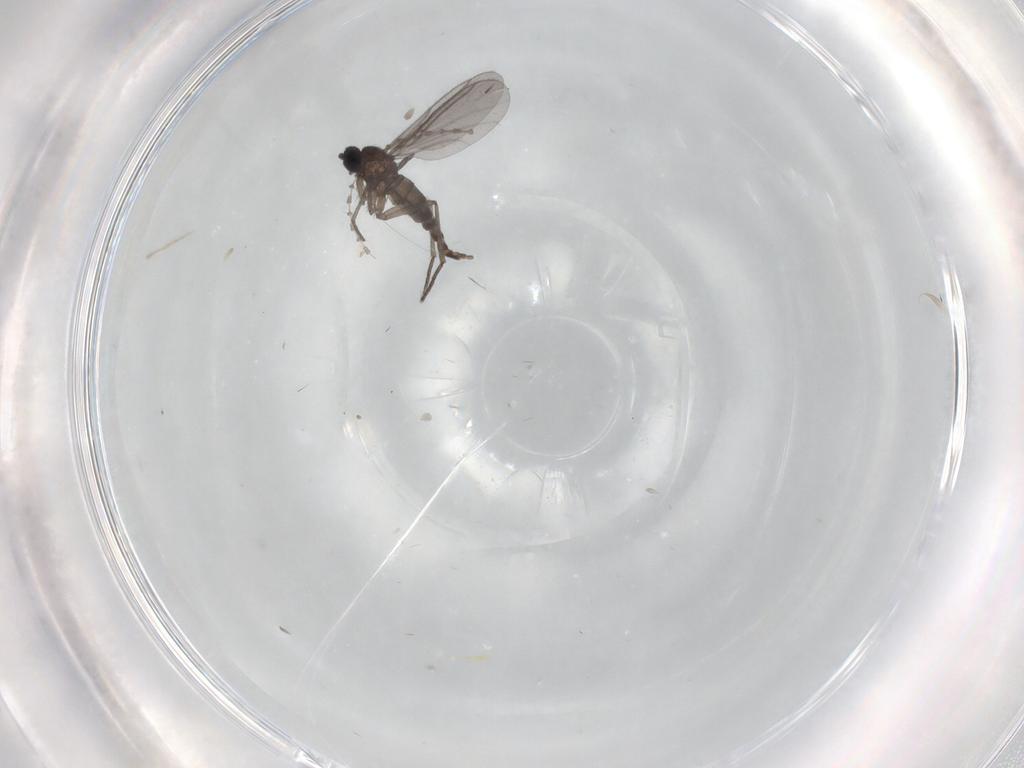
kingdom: Animalia
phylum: Arthropoda
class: Insecta
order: Diptera
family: Cecidomyiidae
